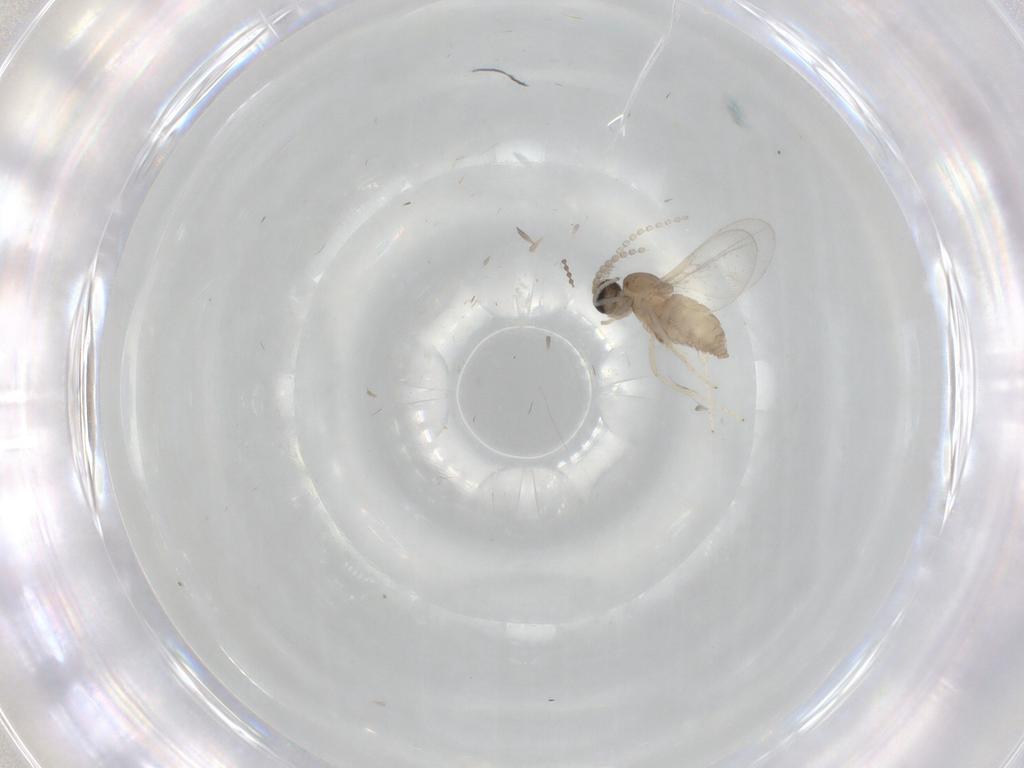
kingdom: Animalia
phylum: Arthropoda
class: Insecta
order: Diptera
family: Cecidomyiidae
